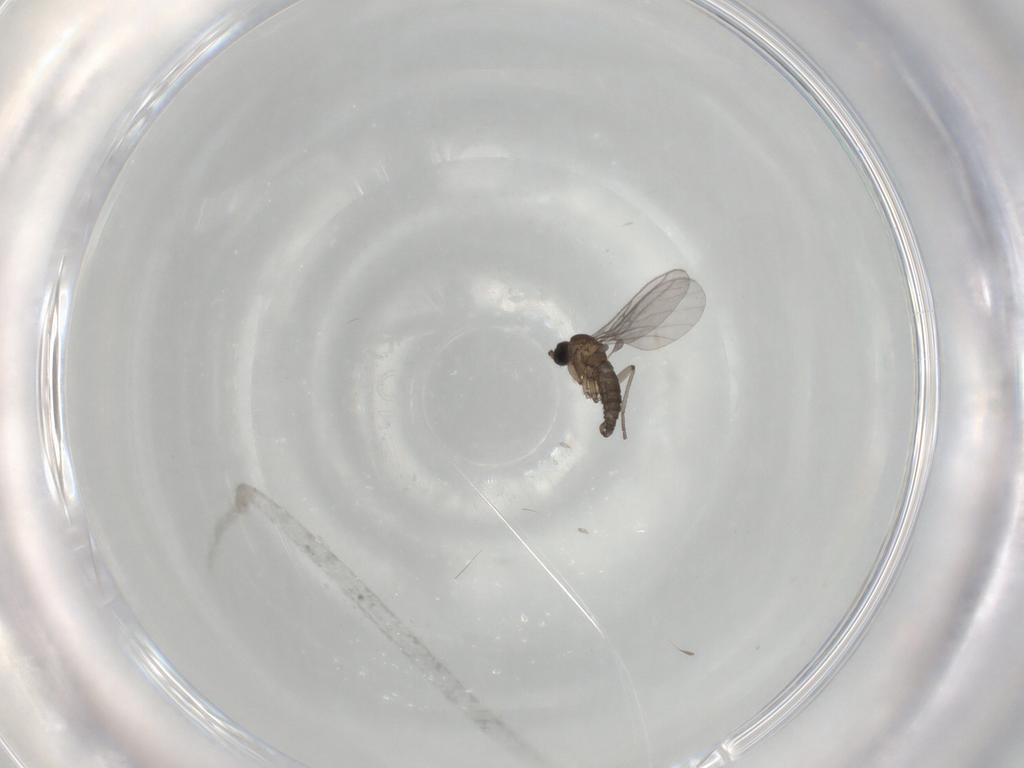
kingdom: Animalia
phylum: Arthropoda
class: Insecta
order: Diptera
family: Sciaridae
